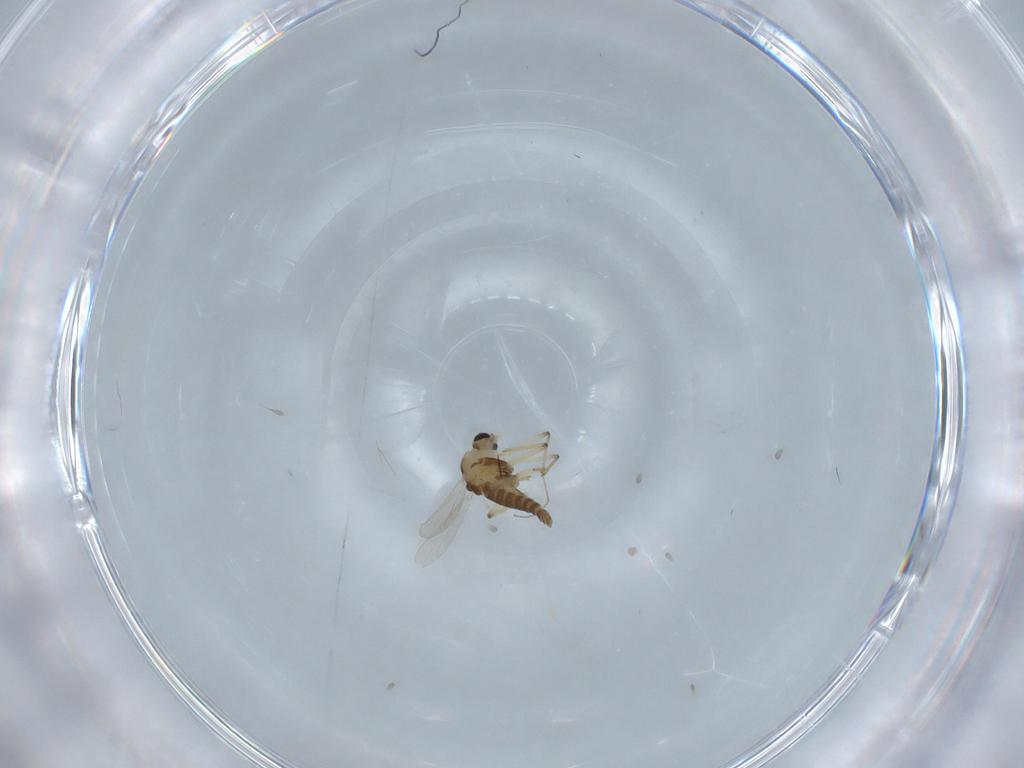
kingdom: Animalia
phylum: Arthropoda
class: Insecta
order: Diptera
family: Chironomidae
